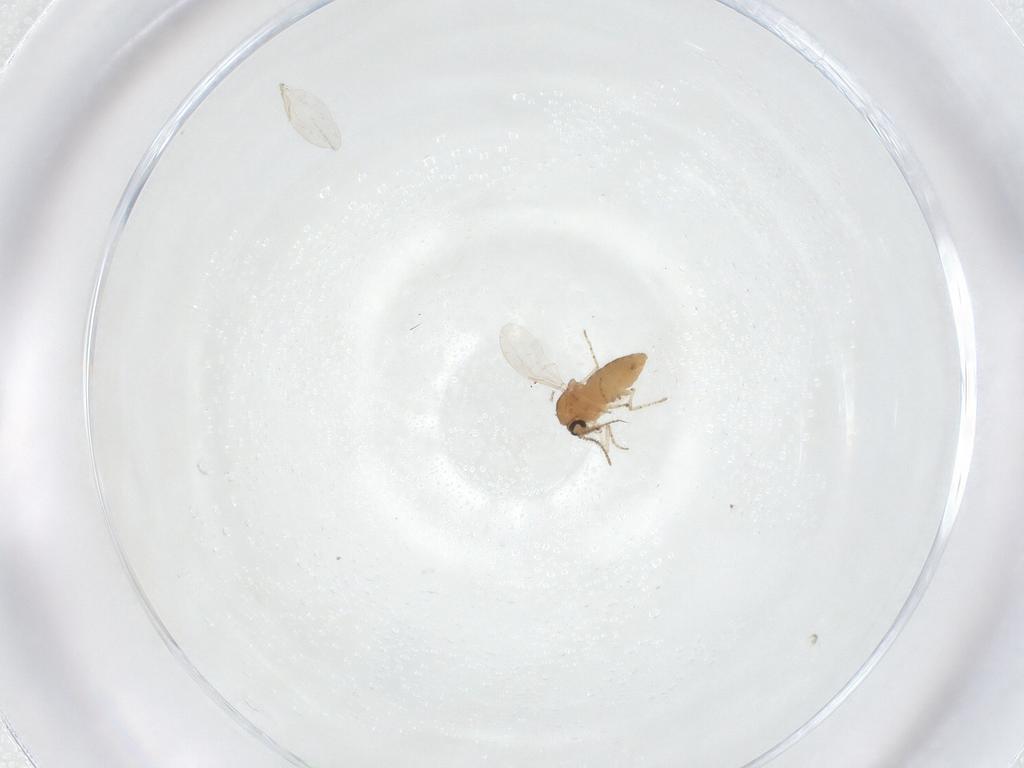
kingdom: Animalia
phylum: Arthropoda
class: Insecta
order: Diptera
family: Ceratopogonidae
